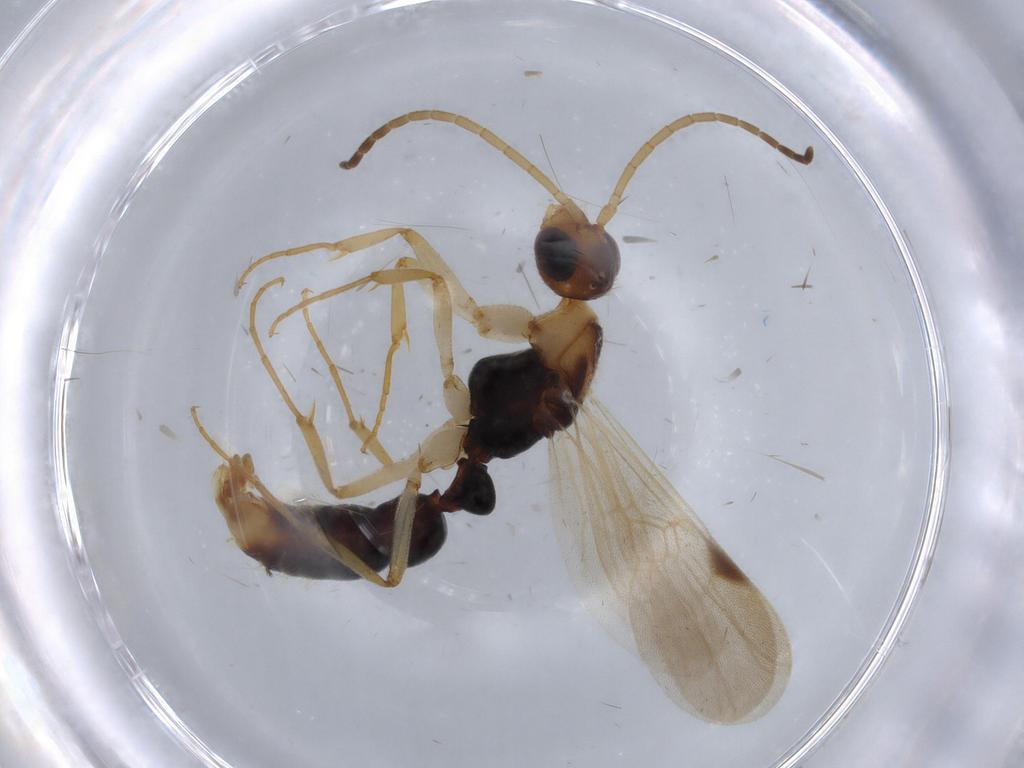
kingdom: Animalia
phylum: Arthropoda
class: Insecta
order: Hymenoptera
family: Formicidae
